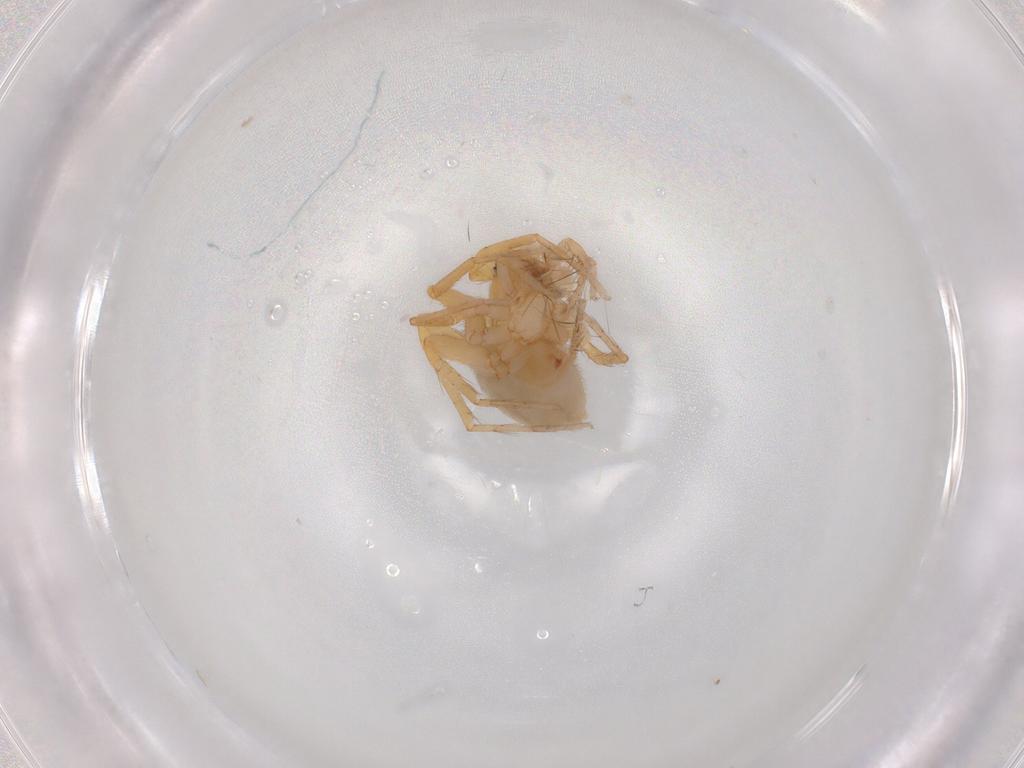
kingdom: Animalia
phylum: Arthropoda
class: Arachnida
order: Araneae
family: Oonopidae
